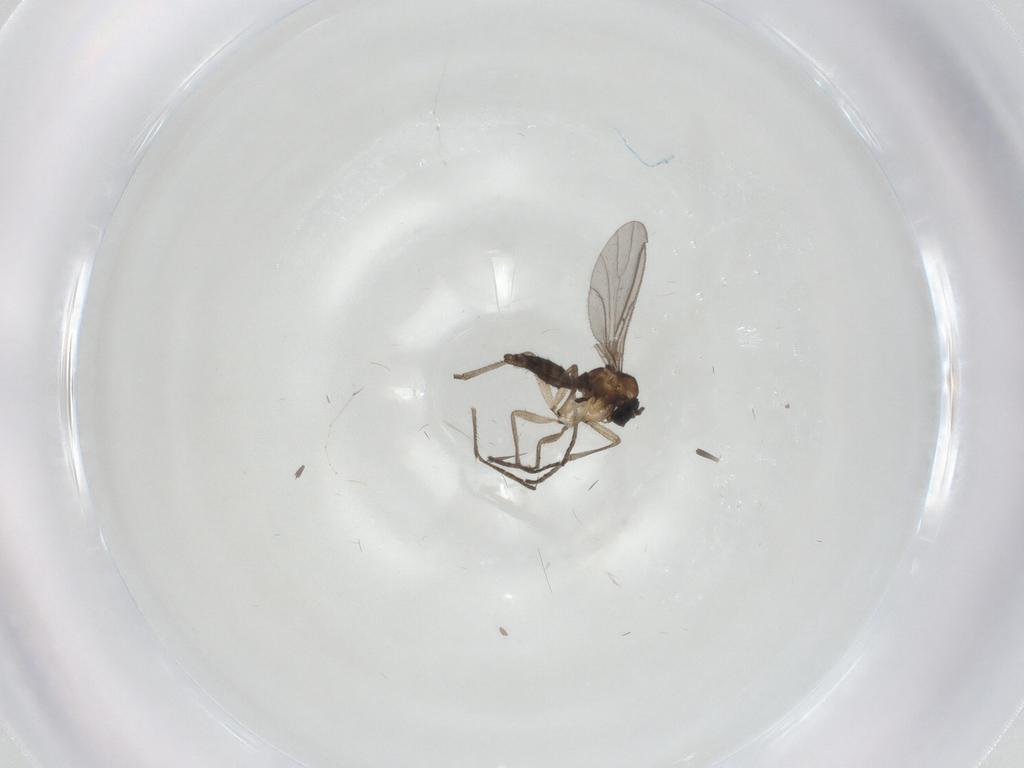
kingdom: Animalia
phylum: Arthropoda
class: Insecta
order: Diptera
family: Sciaridae
